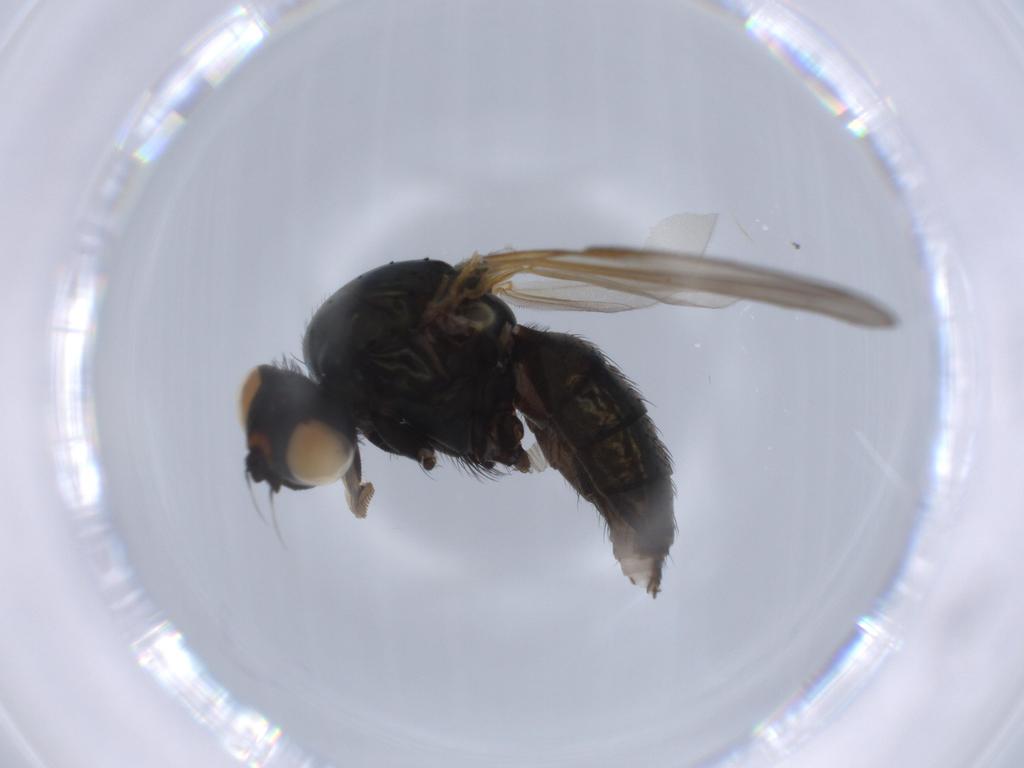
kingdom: Animalia
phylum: Arthropoda
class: Insecta
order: Diptera
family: Anthomyiidae
